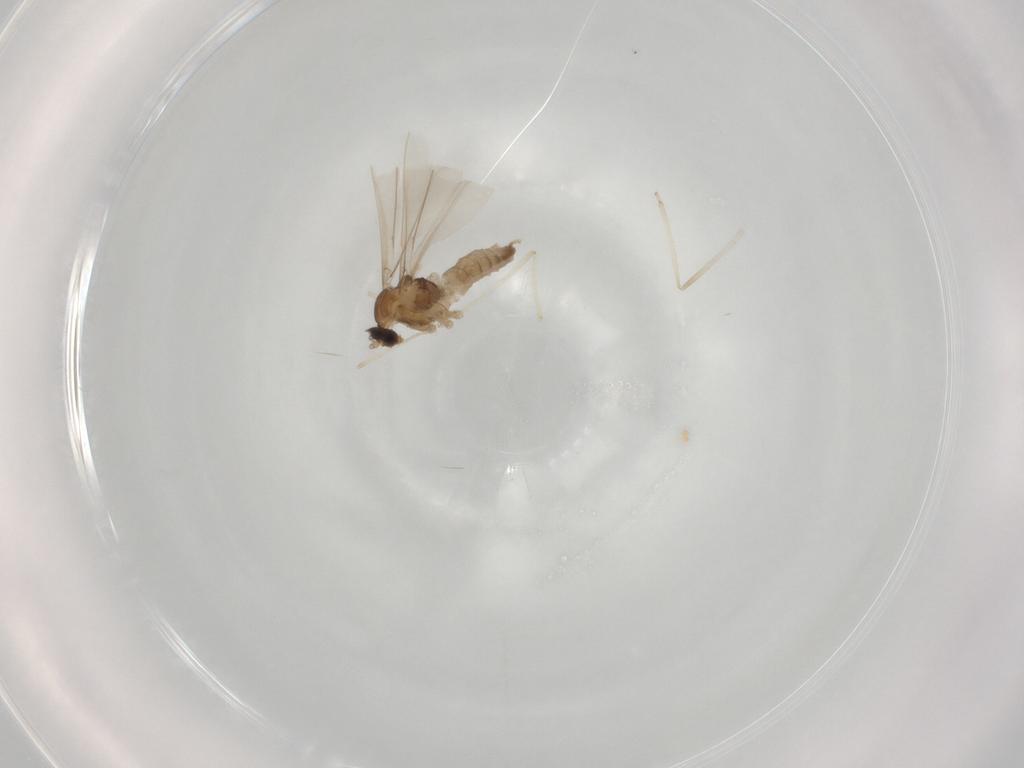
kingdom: Animalia
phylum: Arthropoda
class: Insecta
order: Diptera
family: Cecidomyiidae
